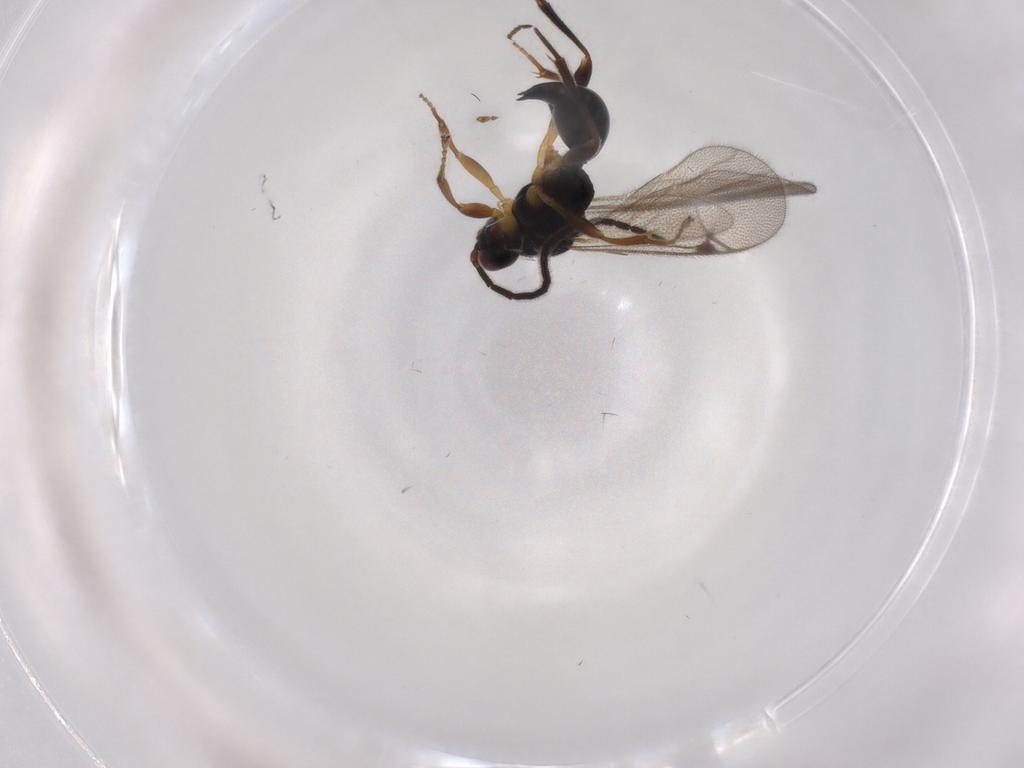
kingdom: Animalia
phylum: Arthropoda
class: Insecta
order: Hymenoptera
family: Proctotrupidae
